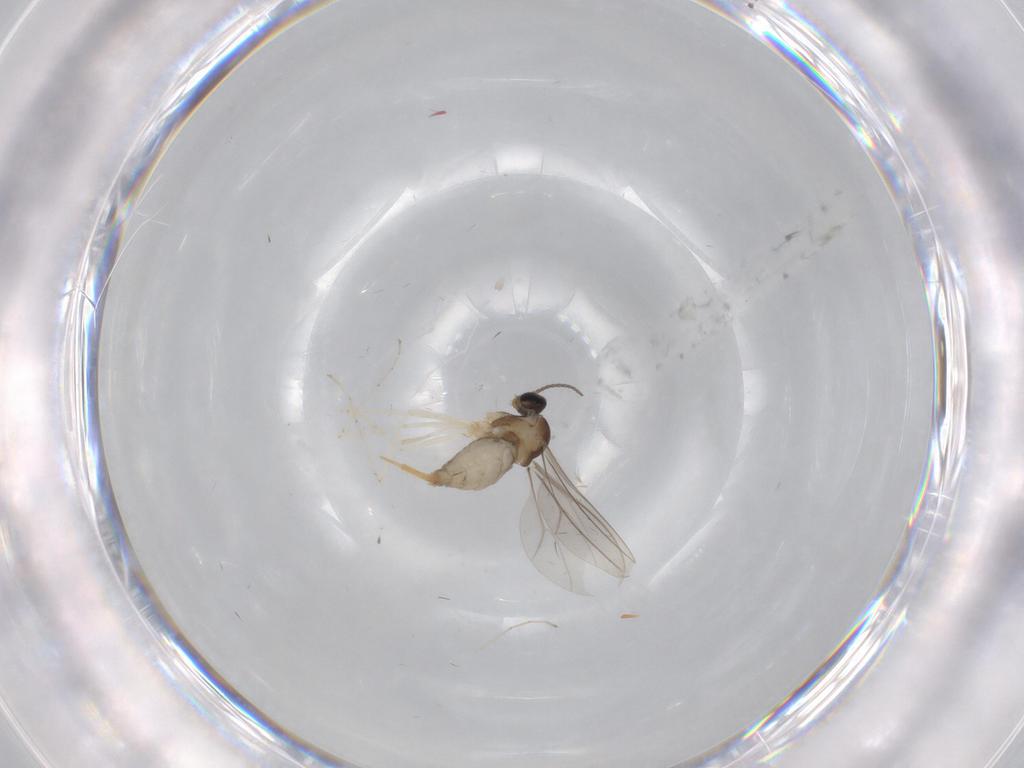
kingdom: Animalia
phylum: Arthropoda
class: Insecta
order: Diptera
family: Cecidomyiidae
